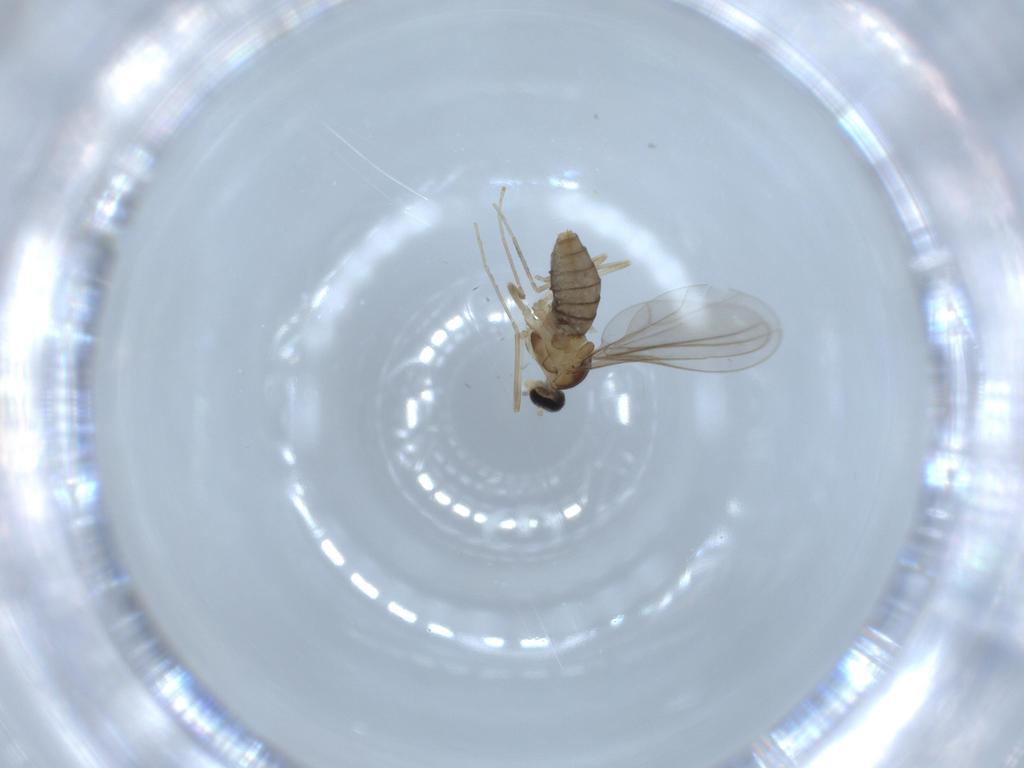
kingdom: Animalia
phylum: Arthropoda
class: Insecta
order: Diptera
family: Cecidomyiidae
